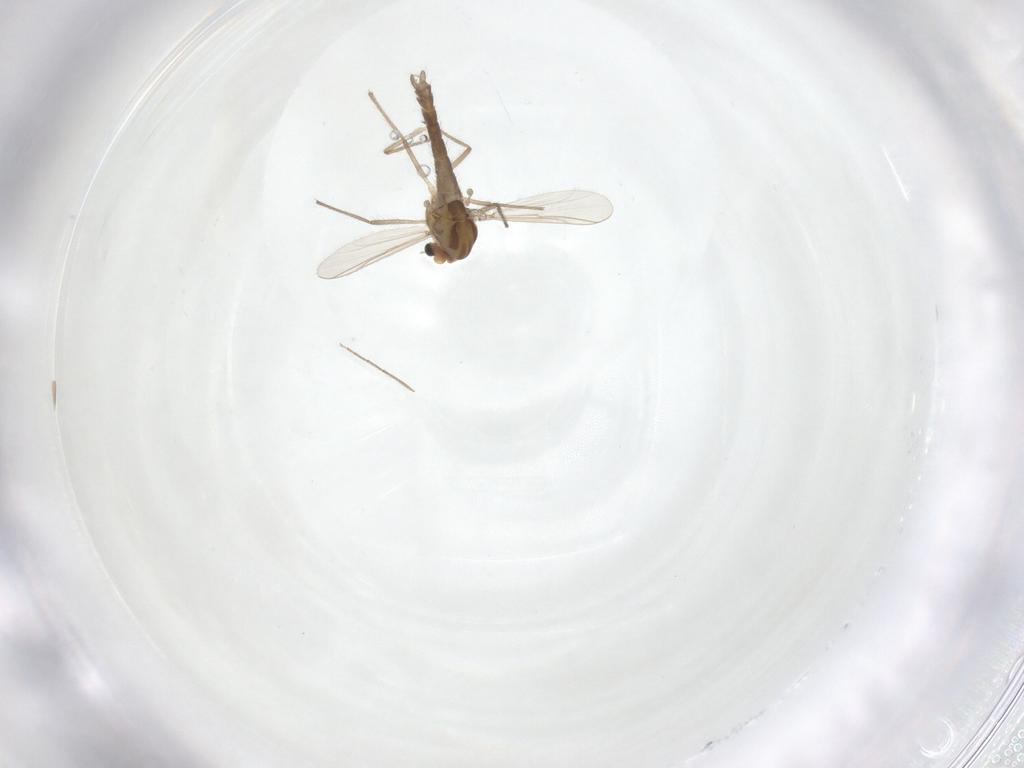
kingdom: Animalia
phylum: Arthropoda
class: Insecta
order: Diptera
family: Chironomidae
